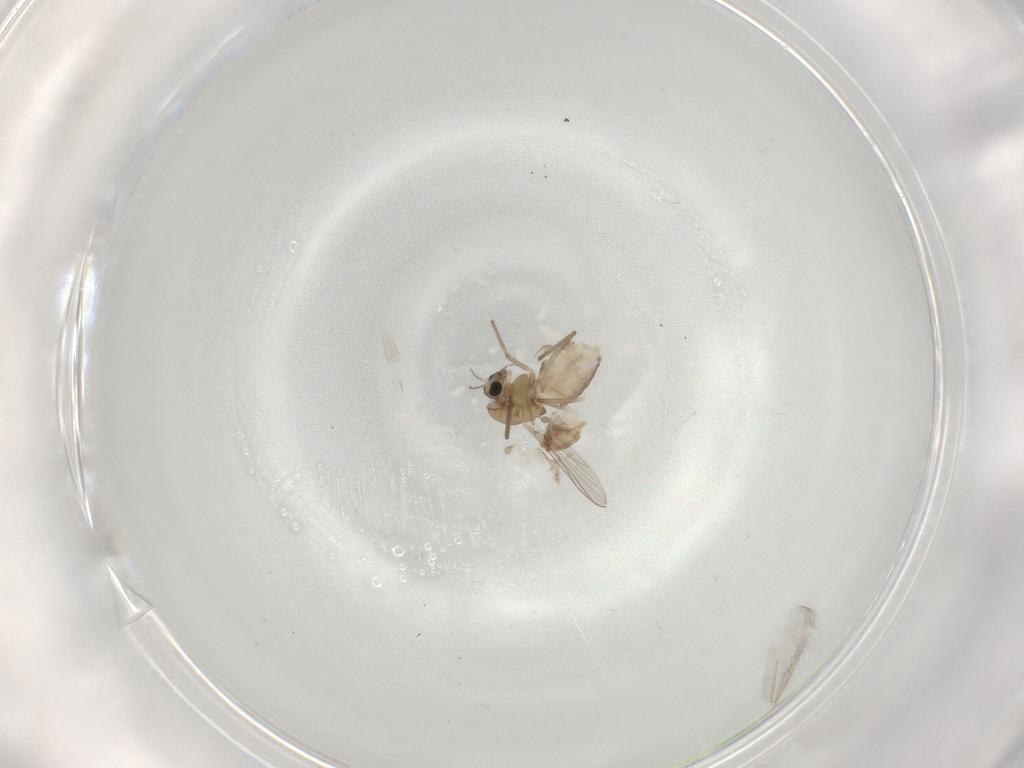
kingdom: Animalia
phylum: Arthropoda
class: Insecta
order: Diptera
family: Chironomidae
